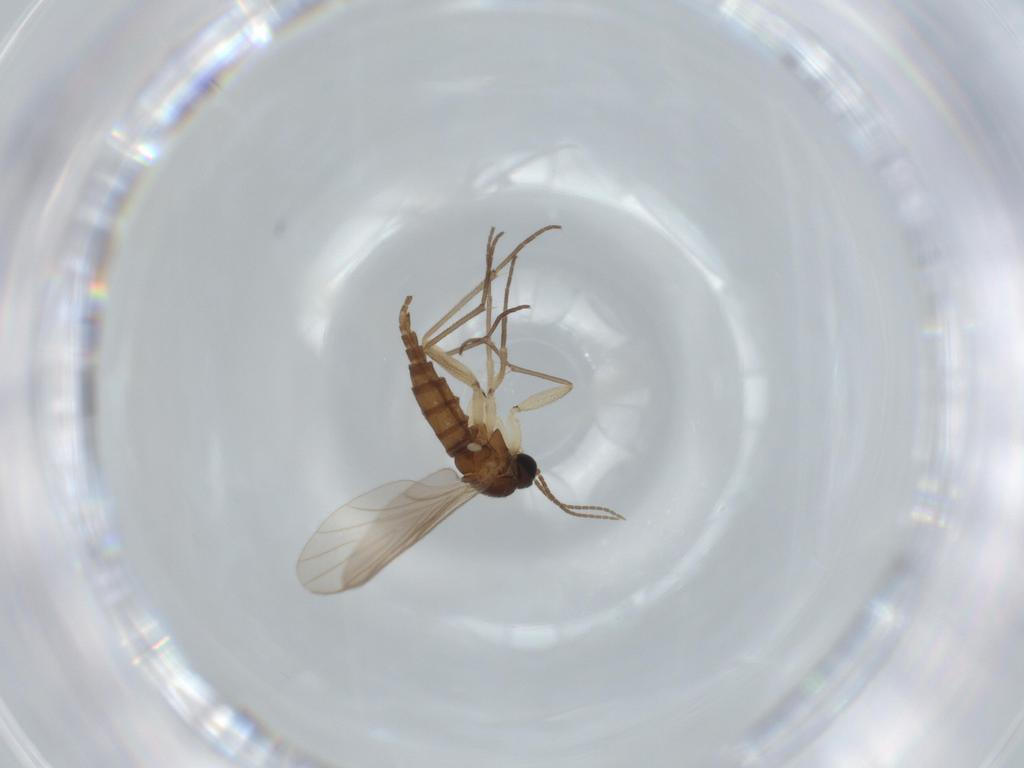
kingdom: Animalia
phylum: Arthropoda
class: Insecta
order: Diptera
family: Sciaridae
